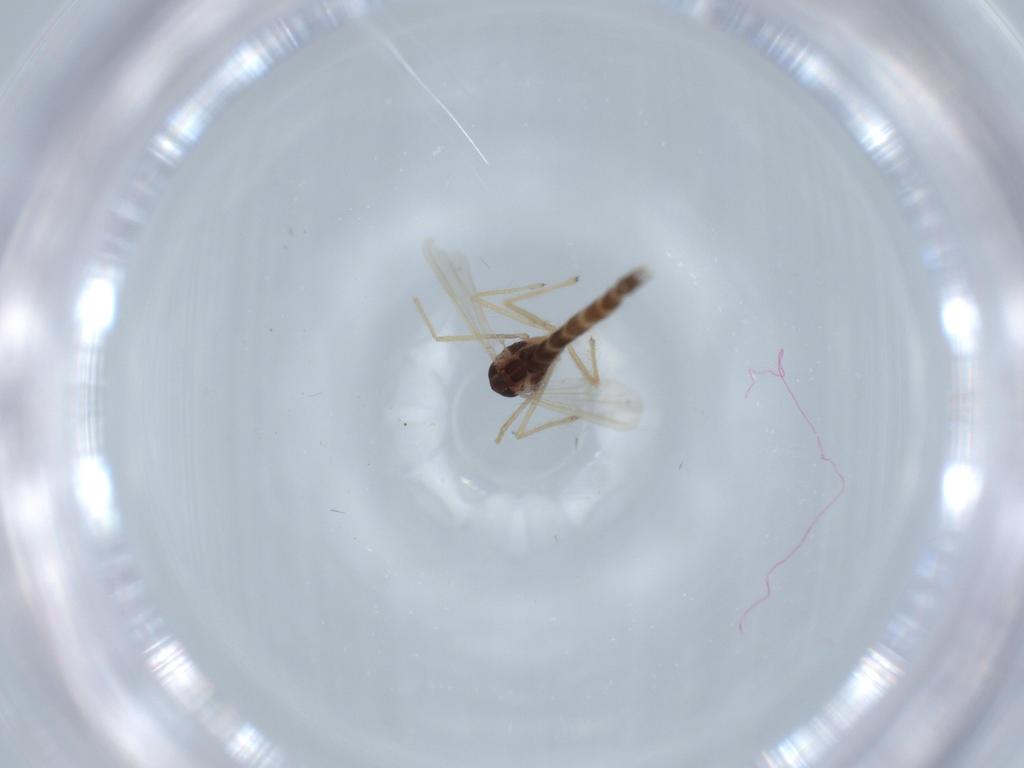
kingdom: Animalia
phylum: Arthropoda
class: Insecta
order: Diptera
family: Chironomidae
